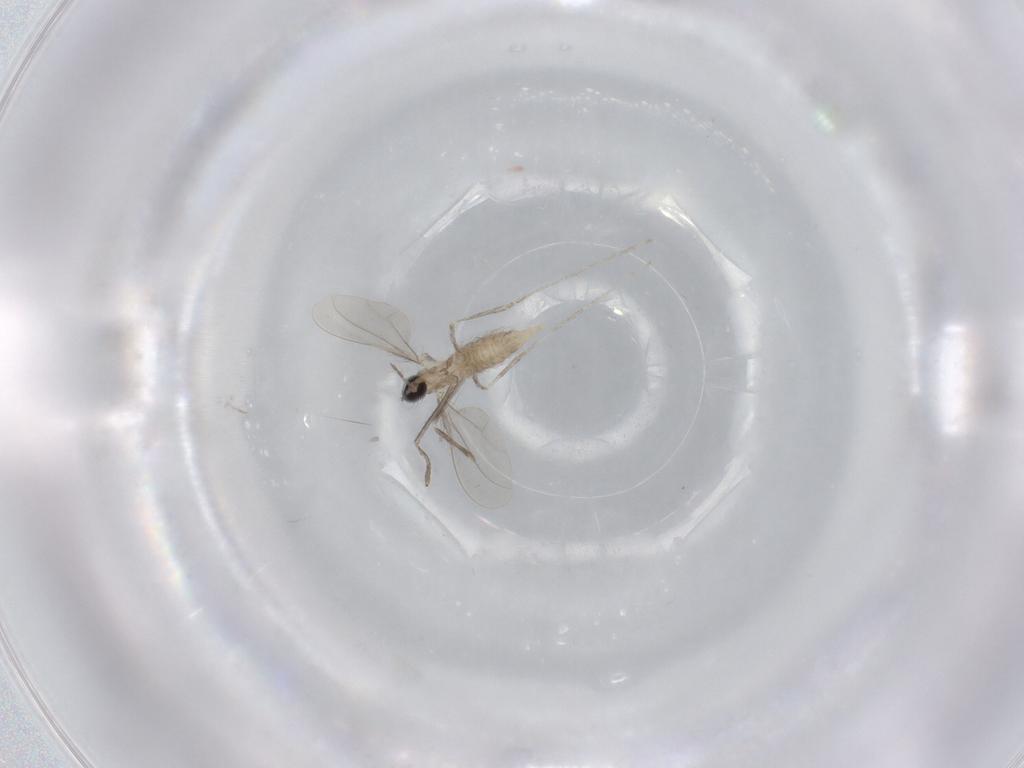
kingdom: Animalia
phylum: Arthropoda
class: Insecta
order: Diptera
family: Cecidomyiidae
